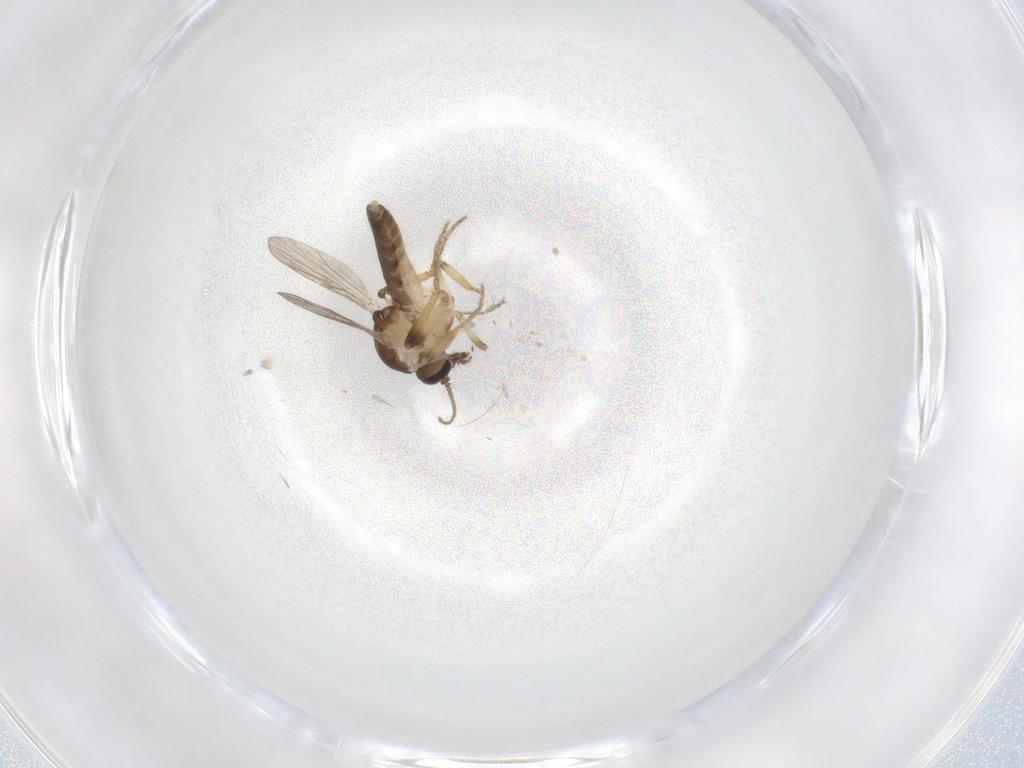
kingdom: Animalia
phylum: Arthropoda
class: Insecta
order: Diptera
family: Ceratopogonidae
